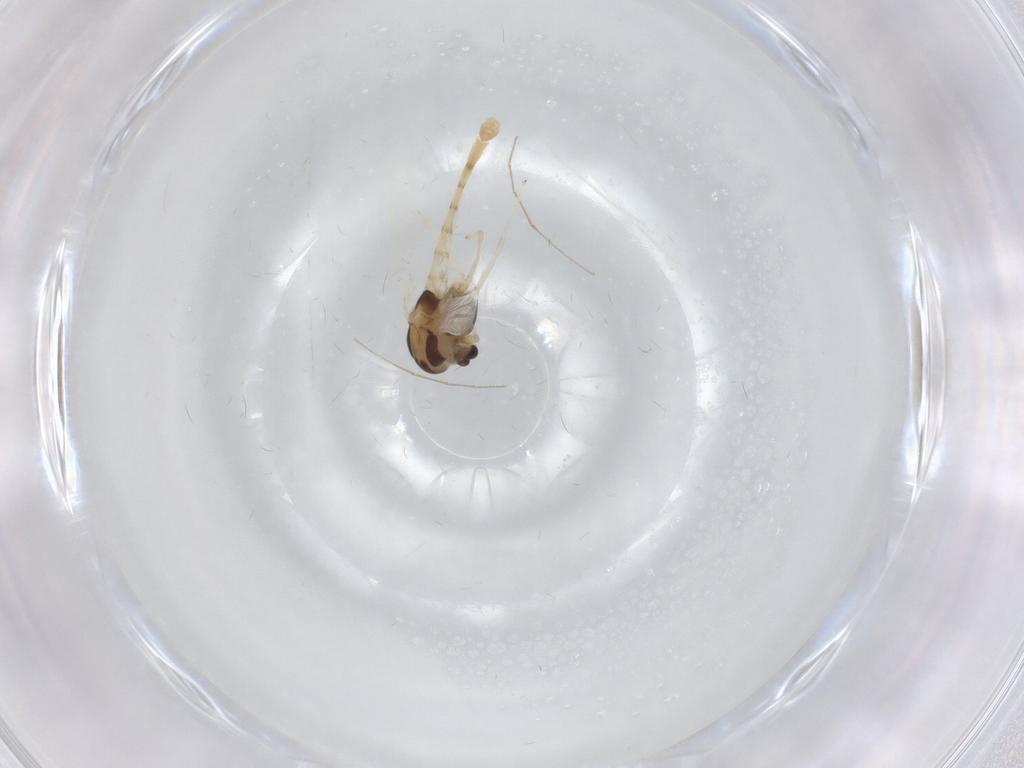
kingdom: Animalia
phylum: Arthropoda
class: Insecta
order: Diptera
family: Chironomidae
